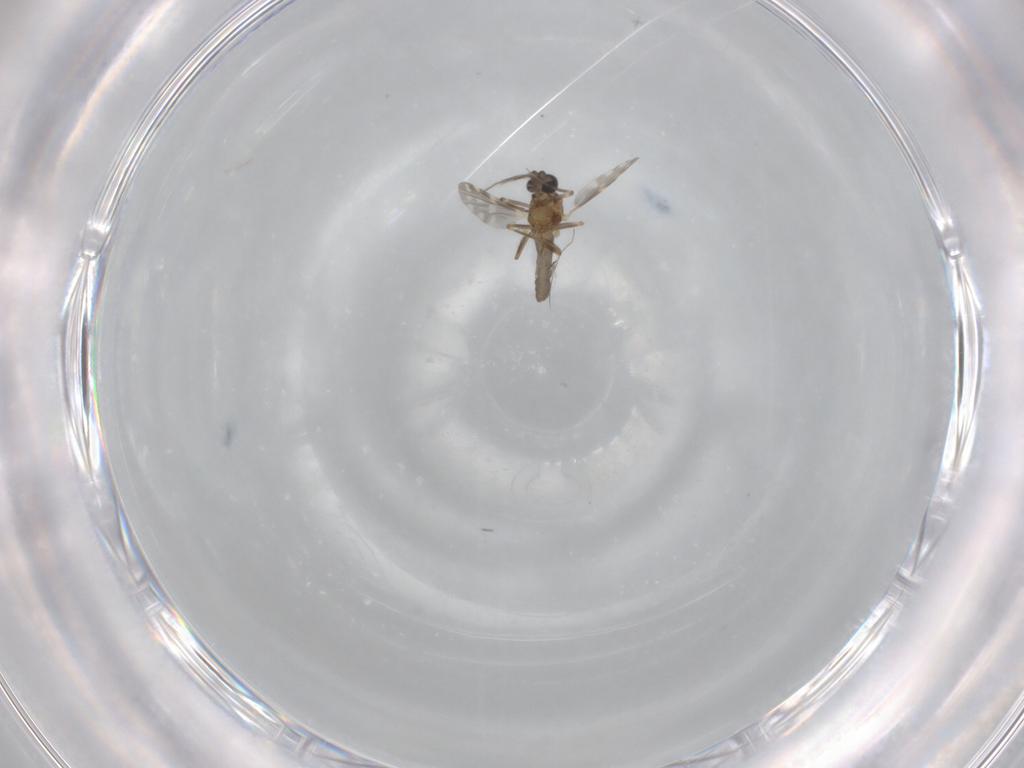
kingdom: Animalia
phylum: Arthropoda
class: Insecta
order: Diptera
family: Cecidomyiidae
